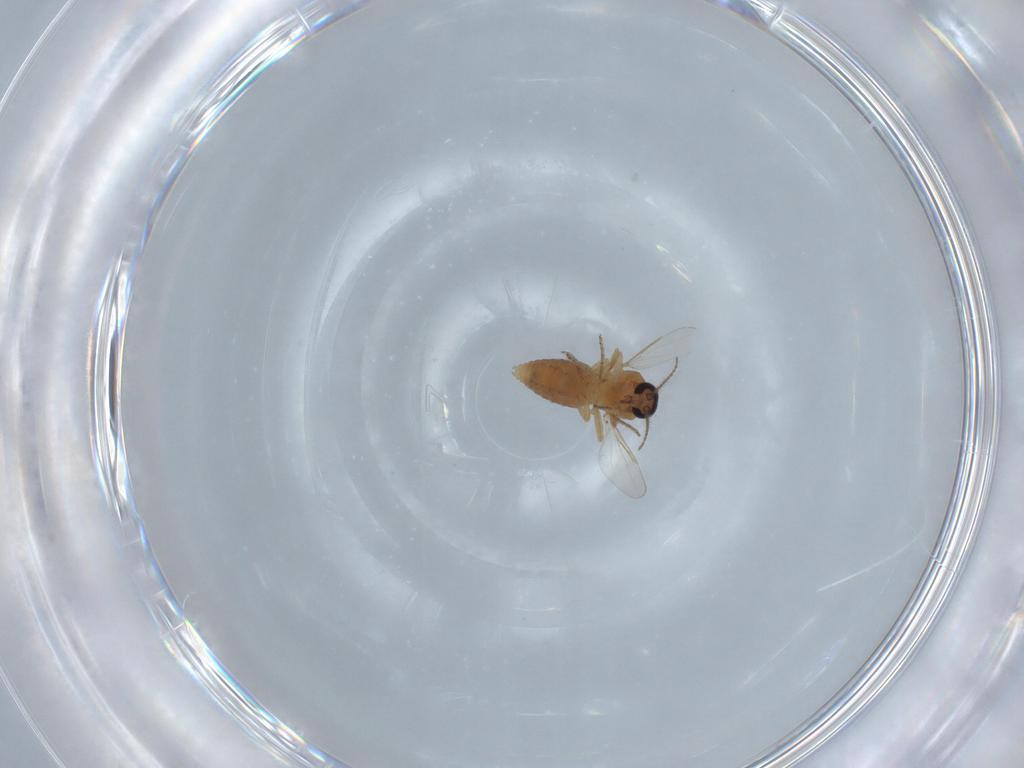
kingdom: Animalia
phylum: Arthropoda
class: Insecta
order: Diptera
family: Ceratopogonidae
